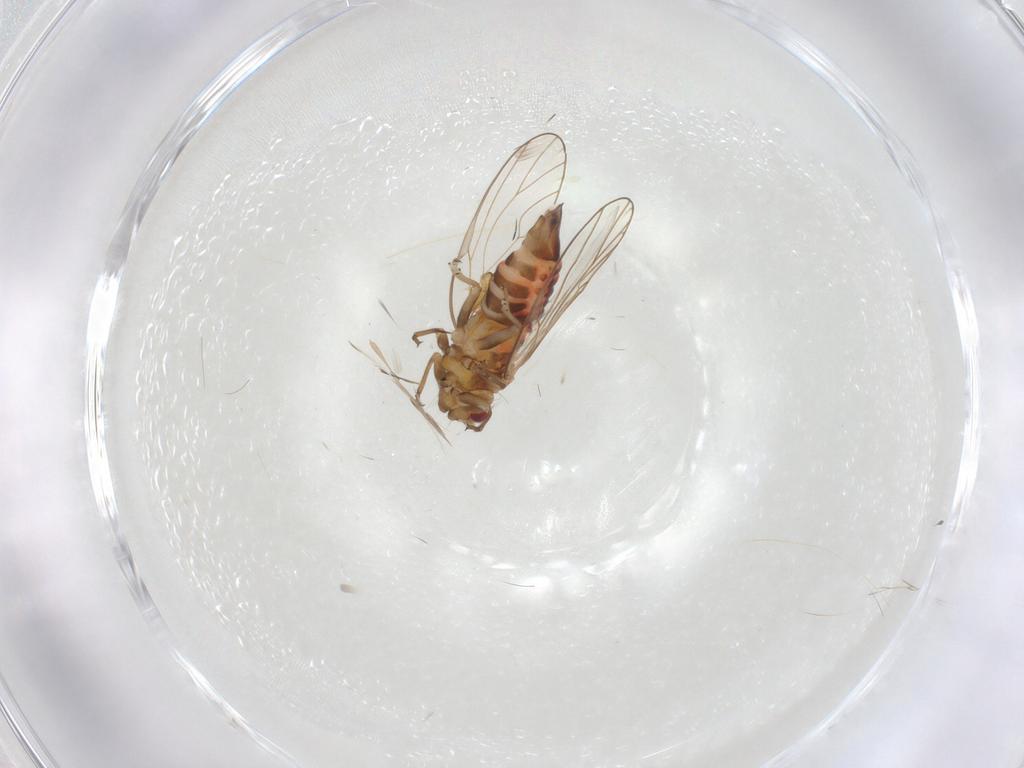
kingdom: Animalia
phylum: Arthropoda
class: Insecta
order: Hemiptera
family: Psyllidae
